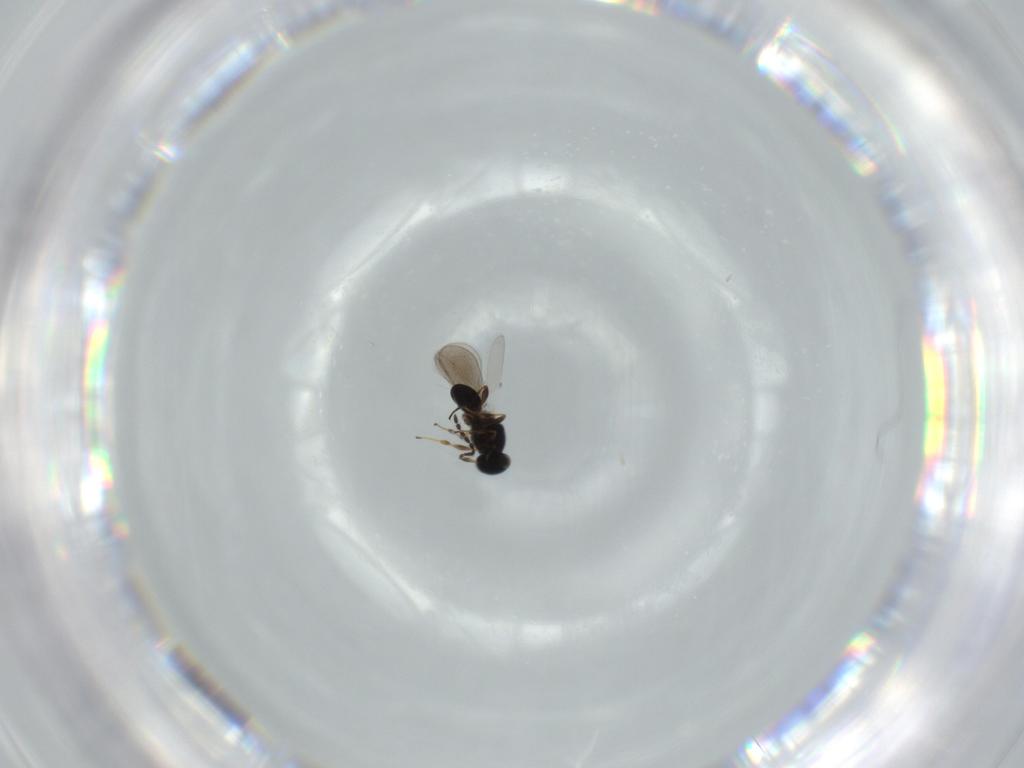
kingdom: Animalia
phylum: Arthropoda
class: Insecta
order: Hymenoptera
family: Platygastridae
